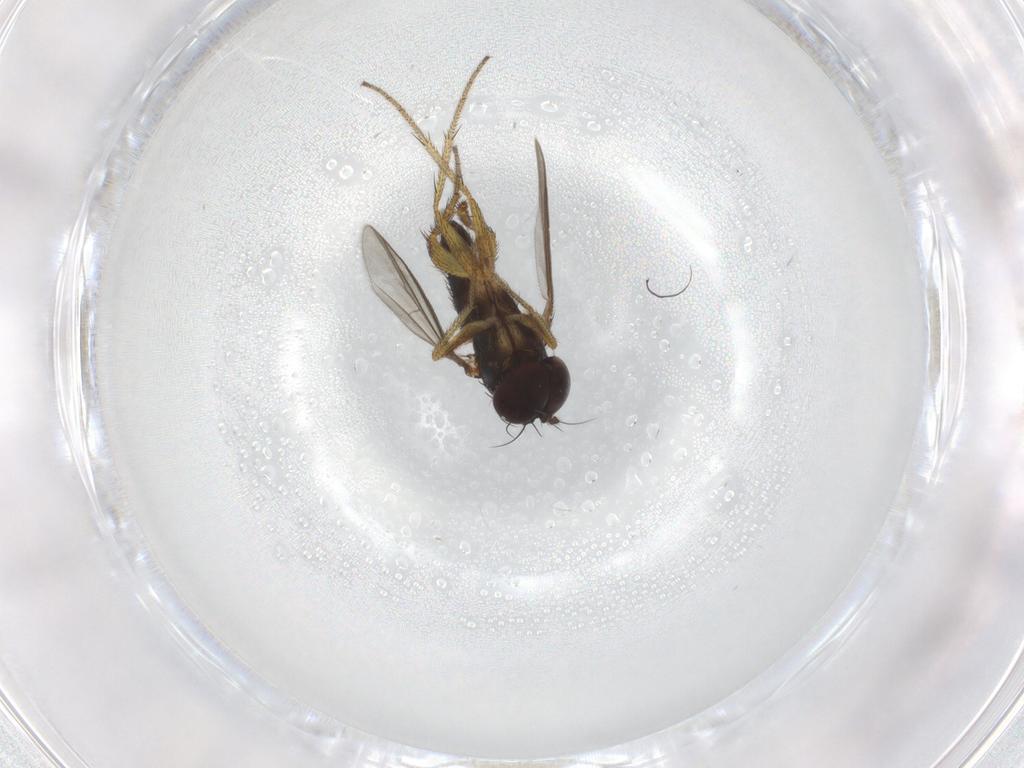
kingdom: Animalia
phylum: Arthropoda
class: Insecta
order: Diptera
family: Dolichopodidae
